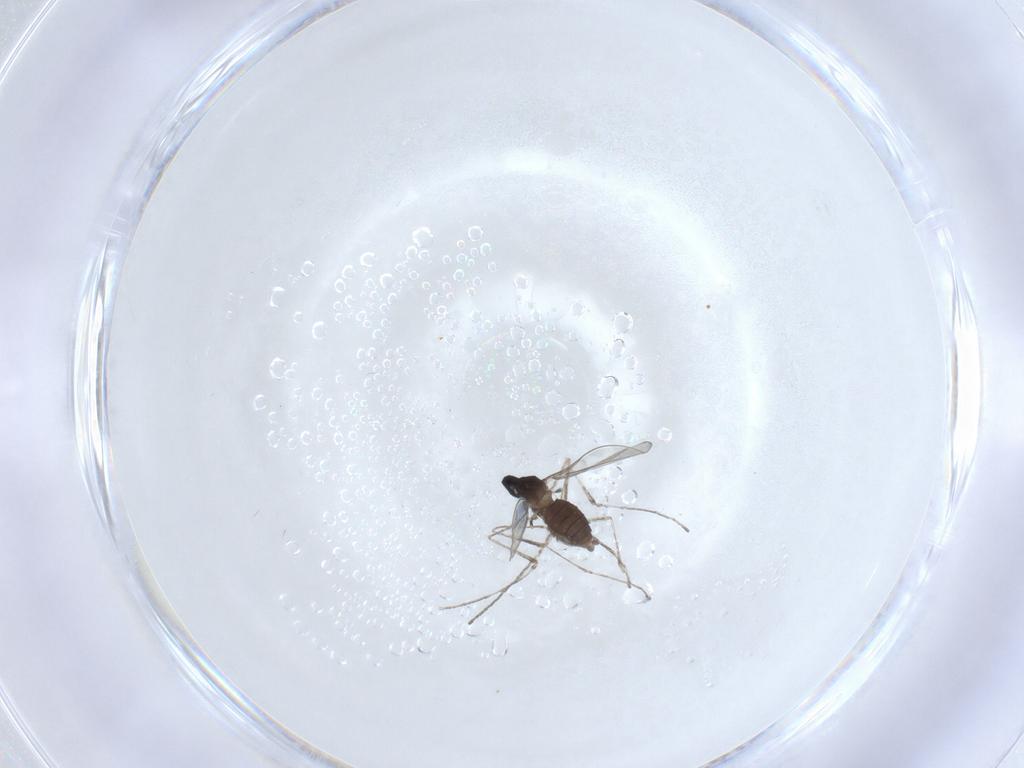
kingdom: Animalia
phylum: Arthropoda
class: Insecta
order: Diptera
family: Cecidomyiidae
